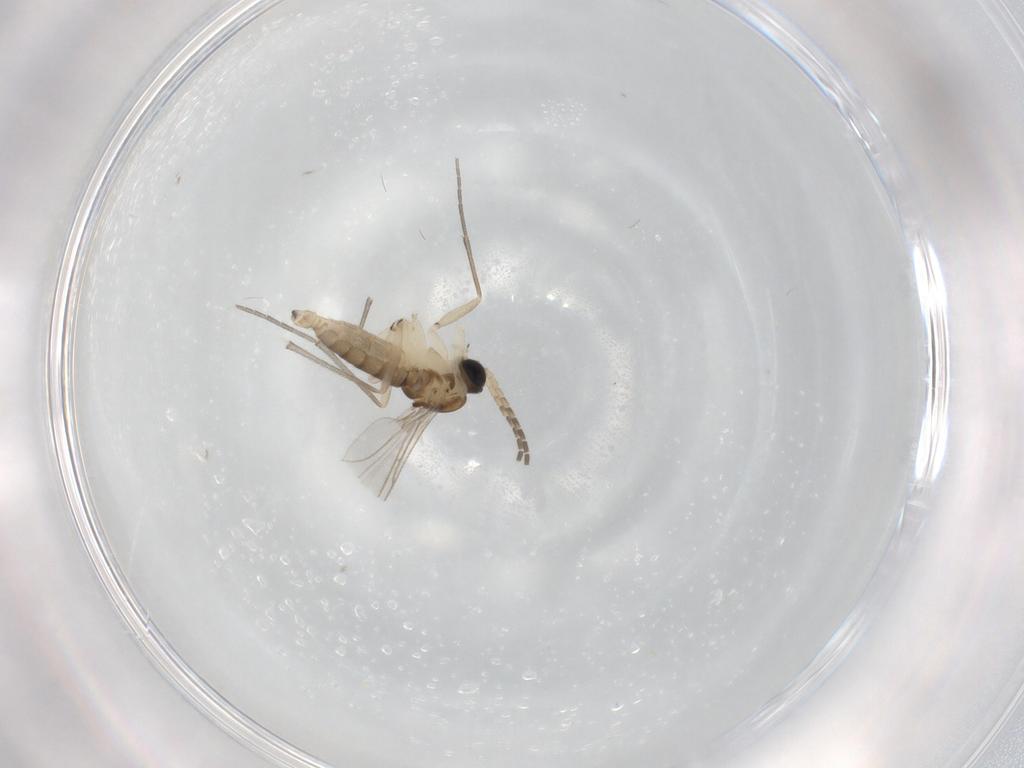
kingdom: Animalia
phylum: Arthropoda
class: Insecta
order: Diptera
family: Sciaridae
